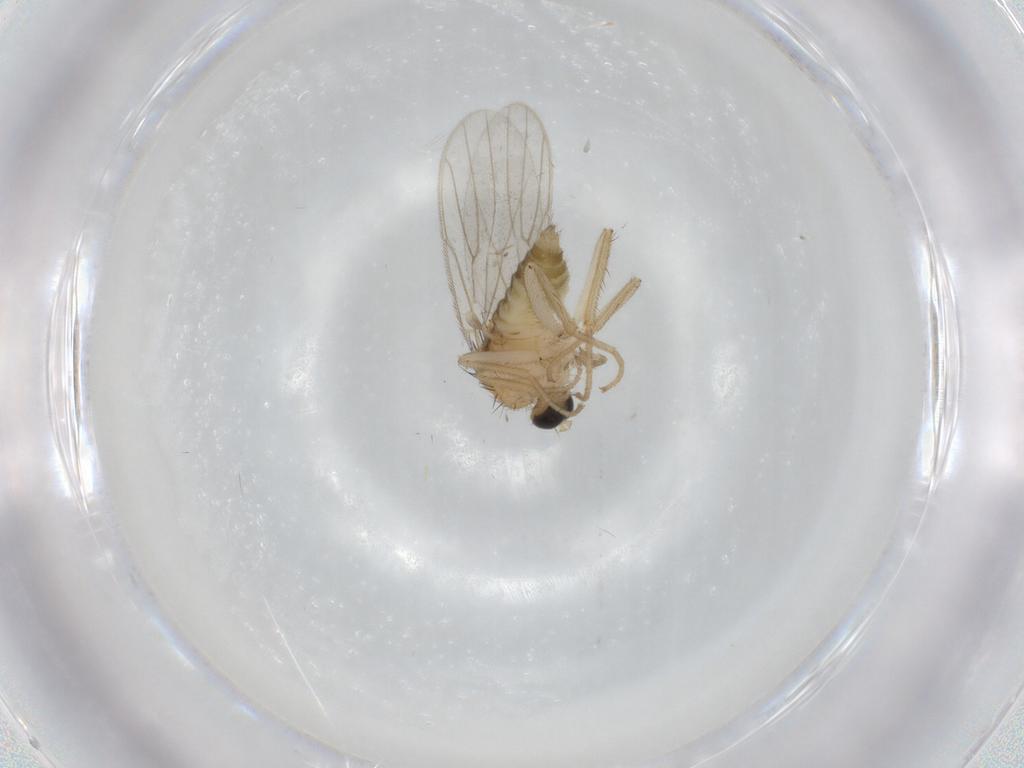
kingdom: Animalia
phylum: Arthropoda
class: Insecta
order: Diptera
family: Hybotidae
